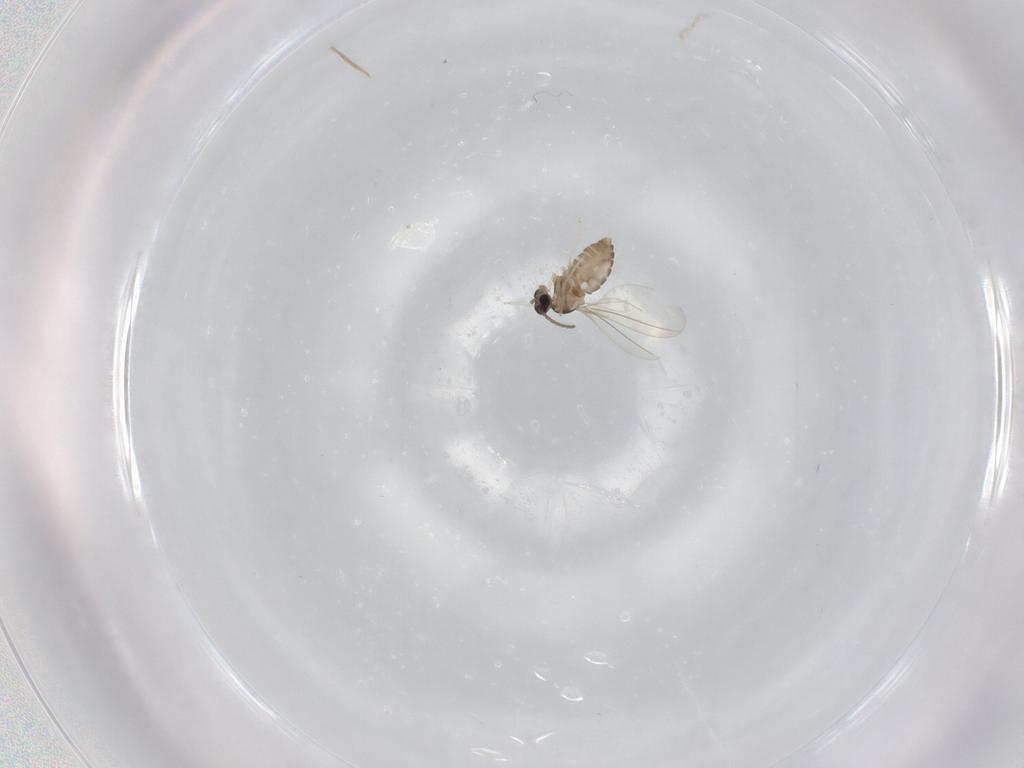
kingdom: Animalia
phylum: Arthropoda
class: Insecta
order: Diptera
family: Cecidomyiidae
